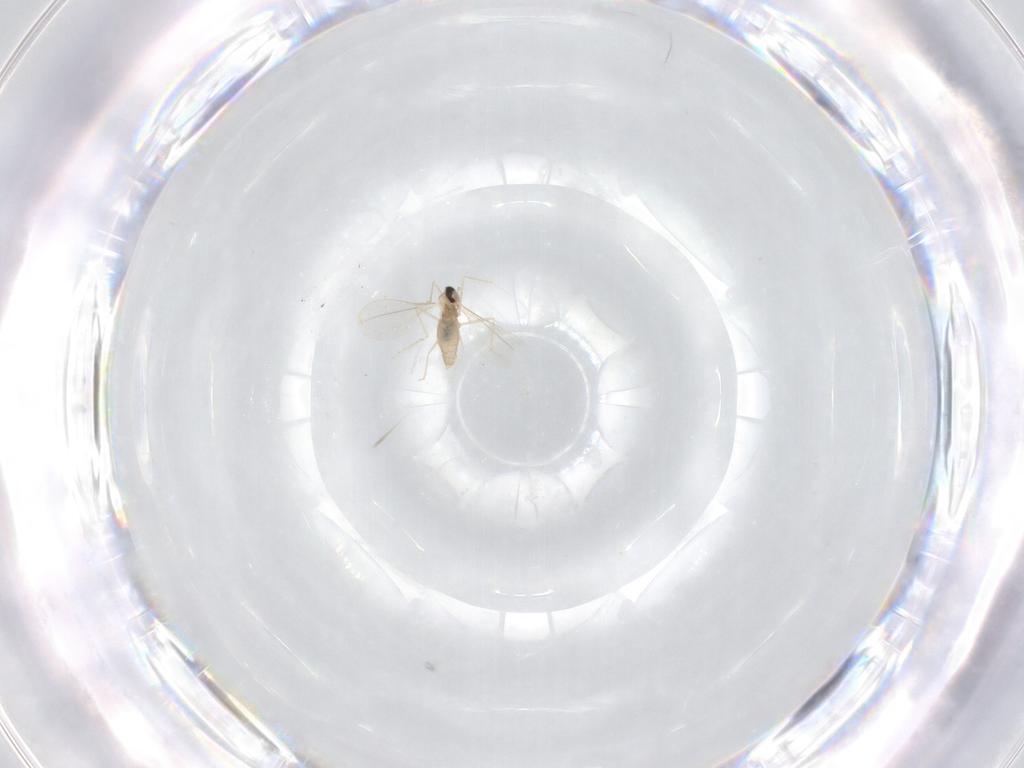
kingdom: Animalia
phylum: Arthropoda
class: Insecta
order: Diptera
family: Cecidomyiidae
